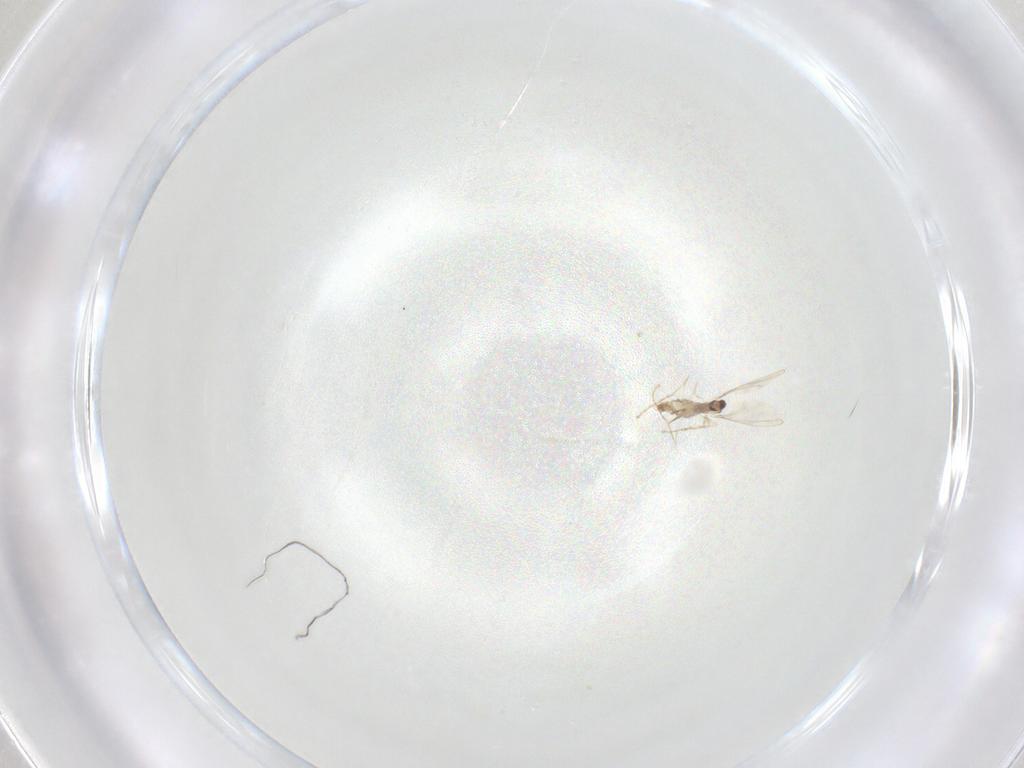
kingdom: Animalia
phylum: Arthropoda
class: Insecta
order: Diptera
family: Cecidomyiidae
